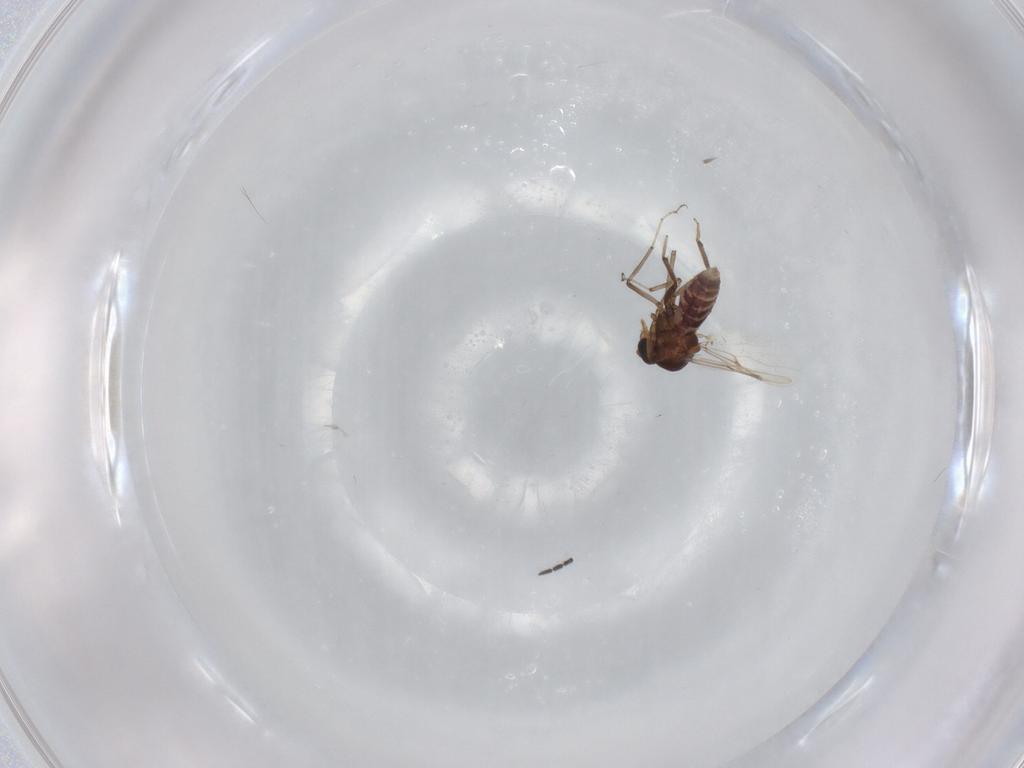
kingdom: Animalia
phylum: Arthropoda
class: Insecta
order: Diptera
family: Ceratopogonidae
